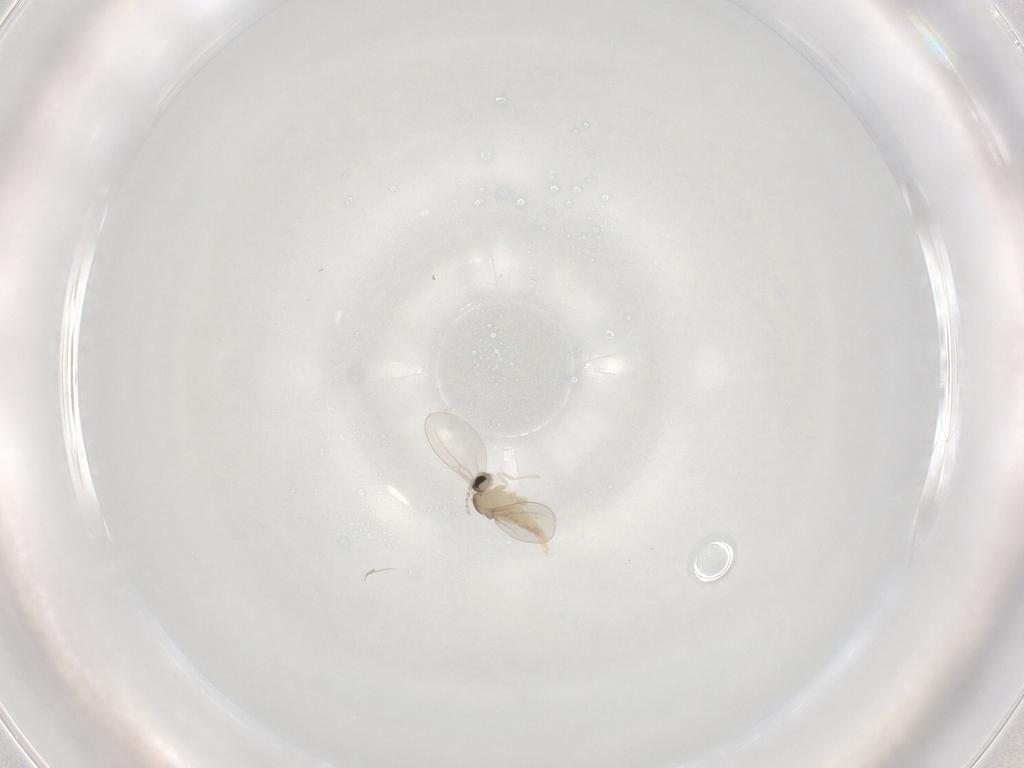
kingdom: Animalia
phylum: Arthropoda
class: Insecta
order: Diptera
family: Cecidomyiidae
